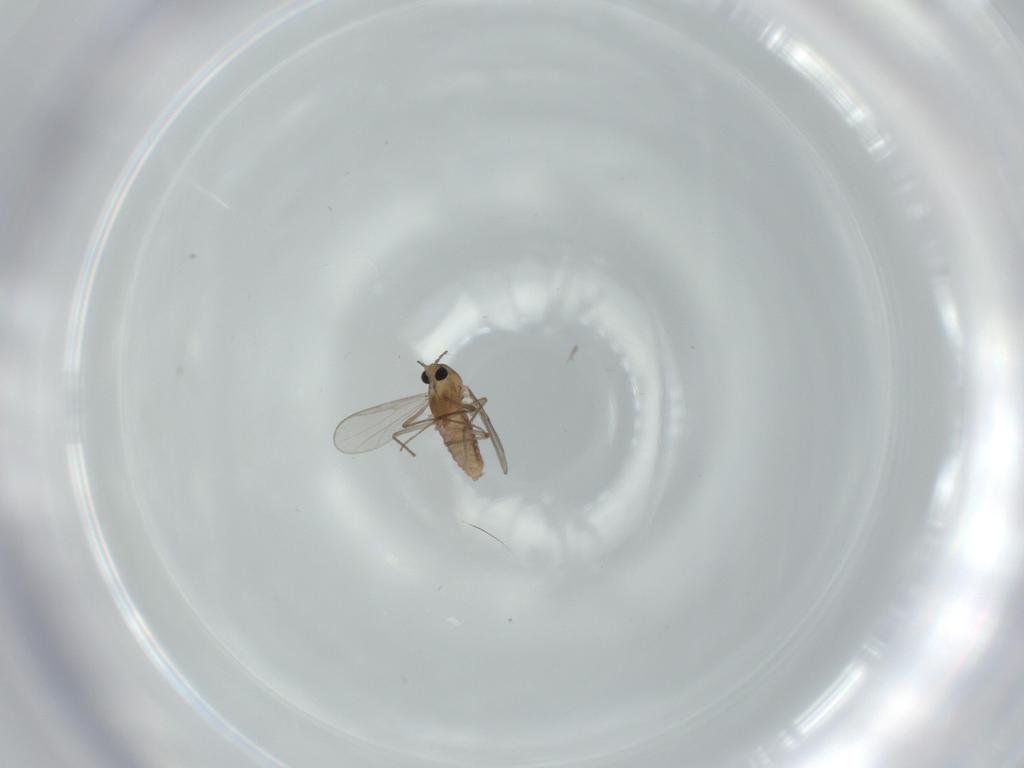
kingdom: Animalia
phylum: Arthropoda
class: Insecta
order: Diptera
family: Chironomidae
